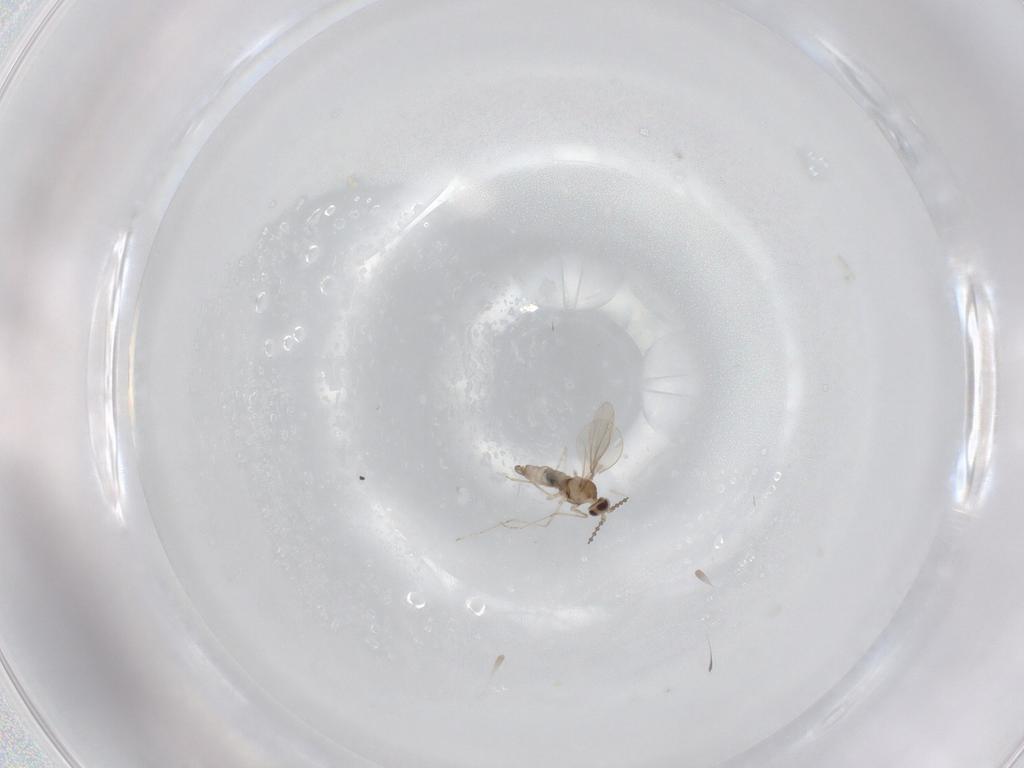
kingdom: Animalia
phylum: Arthropoda
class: Insecta
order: Diptera
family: Cecidomyiidae
